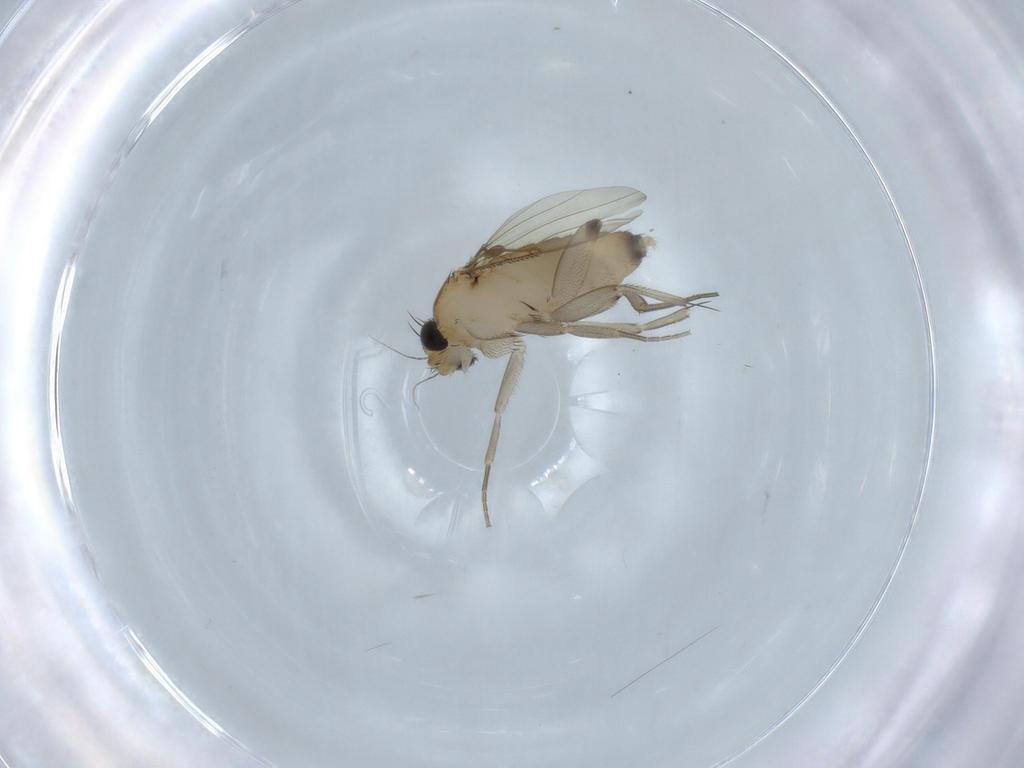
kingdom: Animalia
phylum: Arthropoda
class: Insecta
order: Diptera
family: Phoridae
